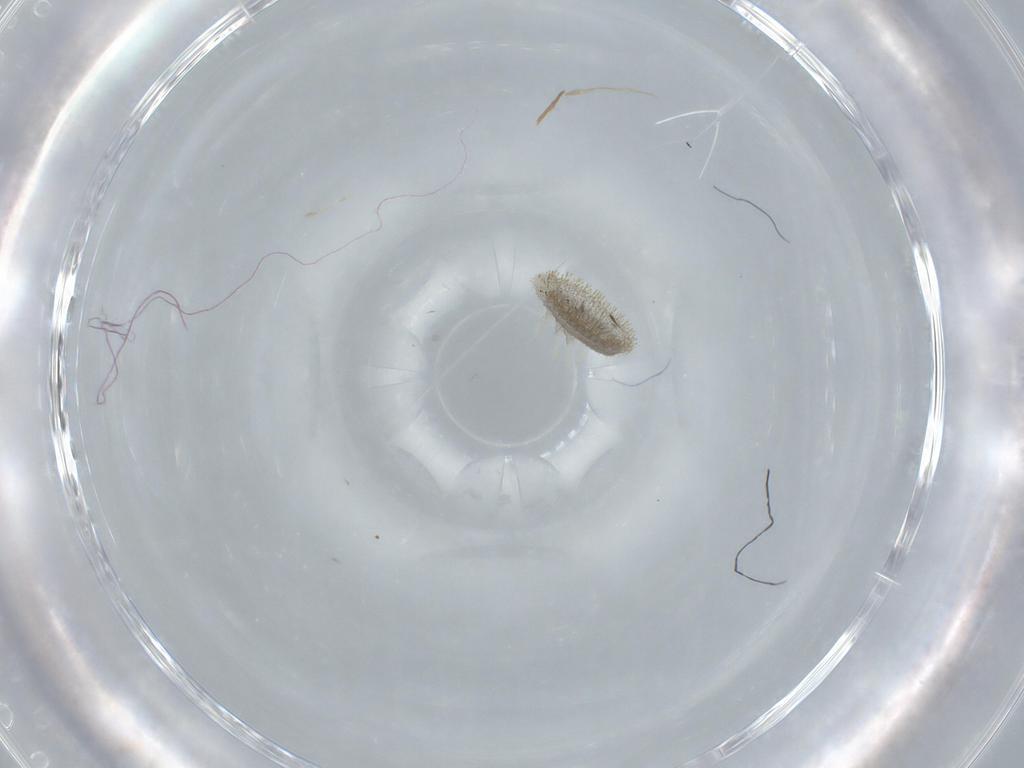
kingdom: Animalia
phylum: Arthropoda
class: Insecta
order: Coleoptera
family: Coccinellidae
